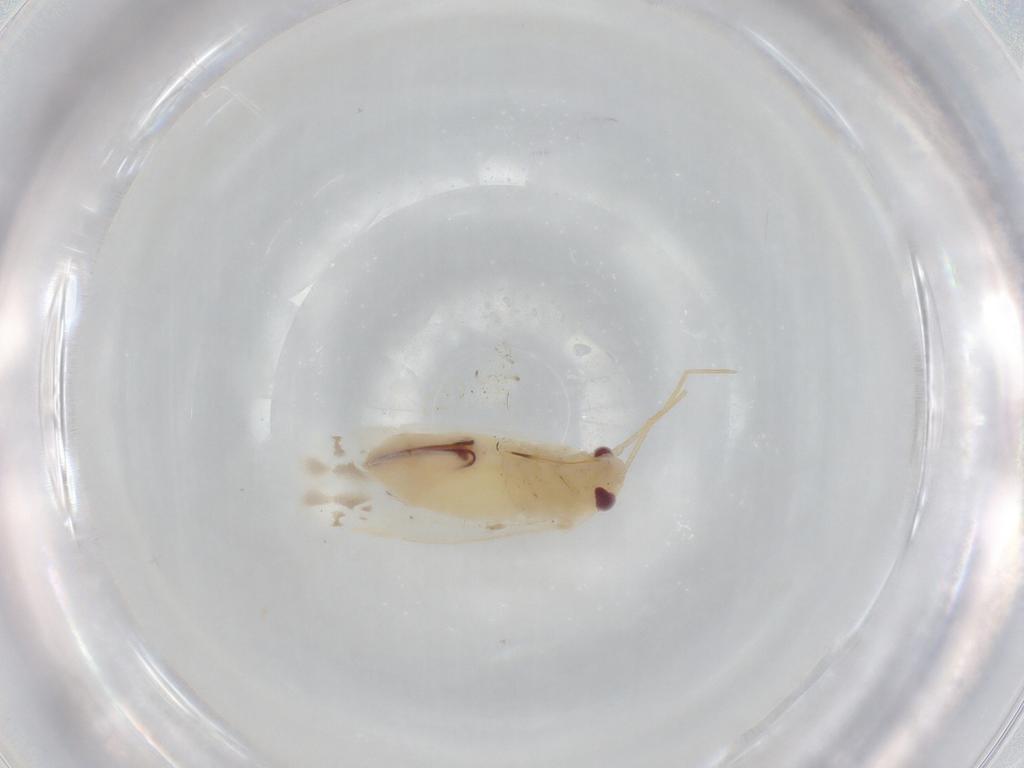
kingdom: Animalia
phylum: Arthropoda
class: Insecta
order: Hemiptera
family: Miridae
